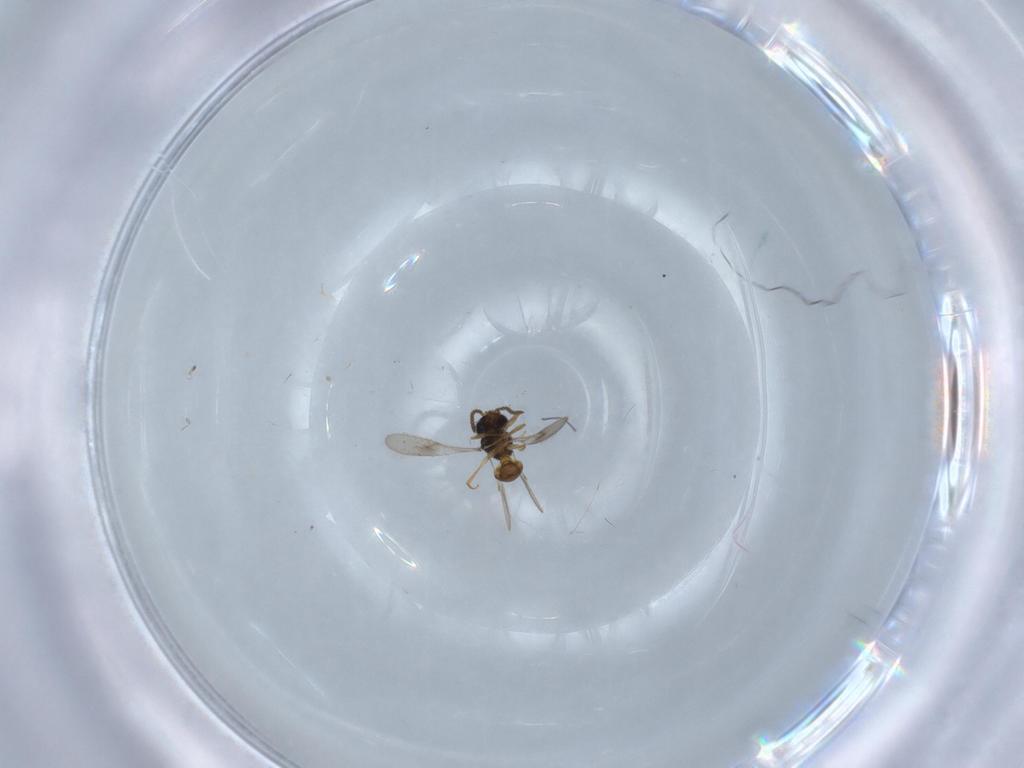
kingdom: Animalia
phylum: Arthropoda
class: Insecta
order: Hymenoptera
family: Scelionidae
